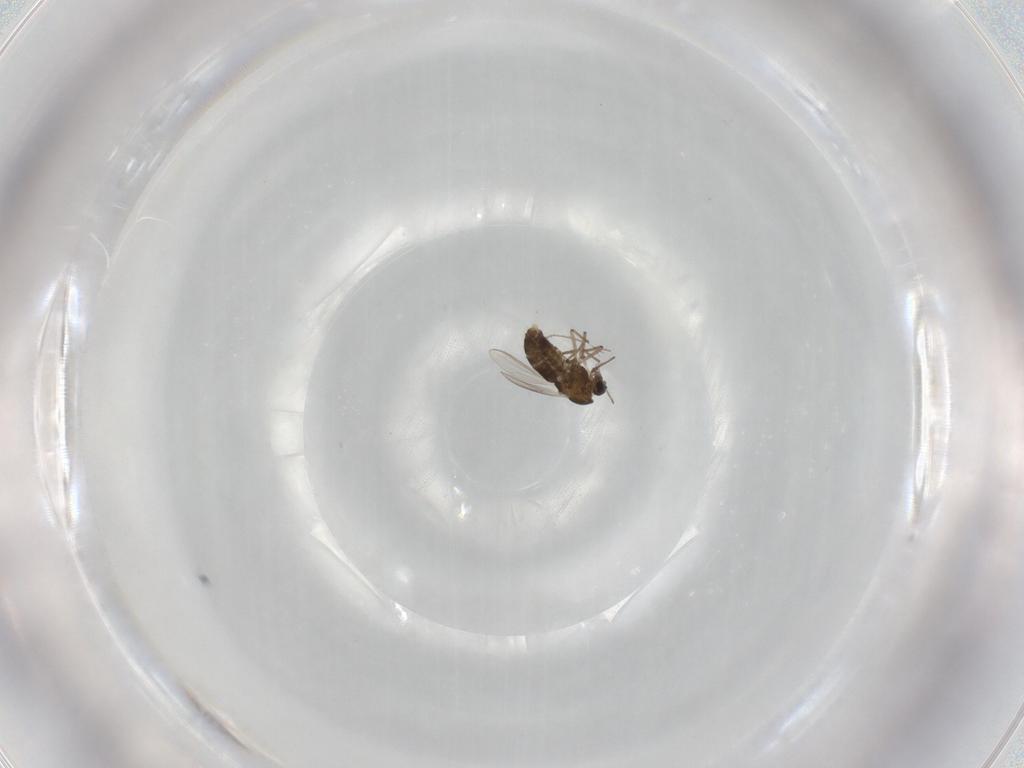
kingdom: Animalia
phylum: Arthropoda
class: Insecta
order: Diptera
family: Psychodidae
